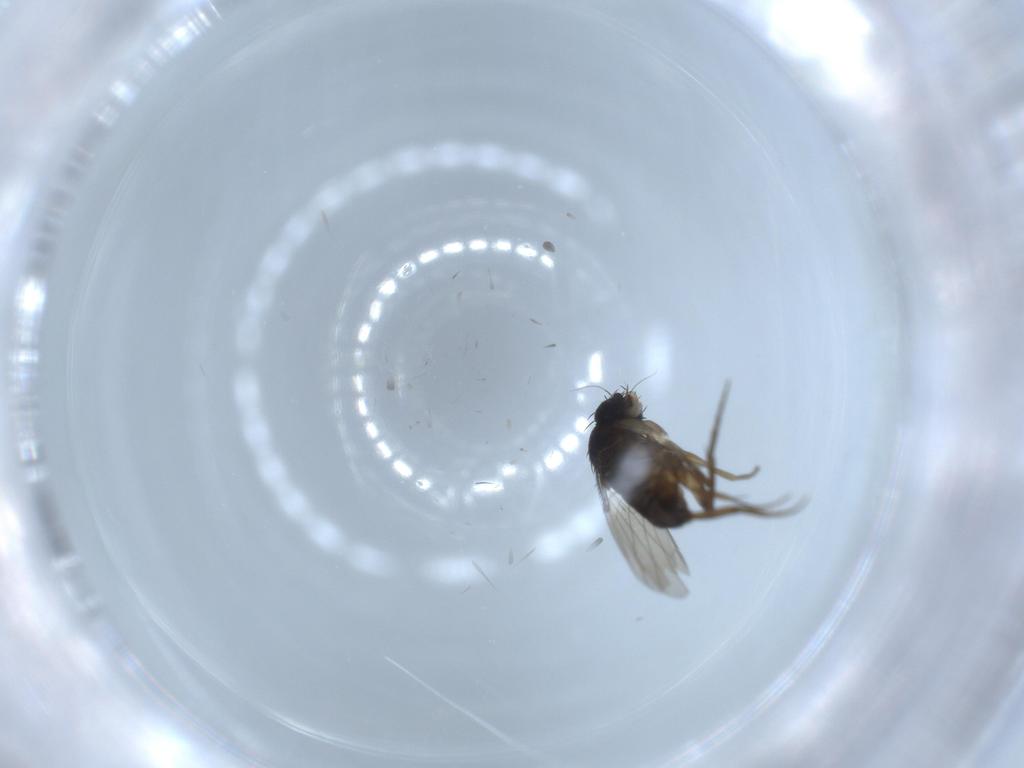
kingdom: Animalia
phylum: Arthropoda
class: Insecta
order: Diptera
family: Phoridae
